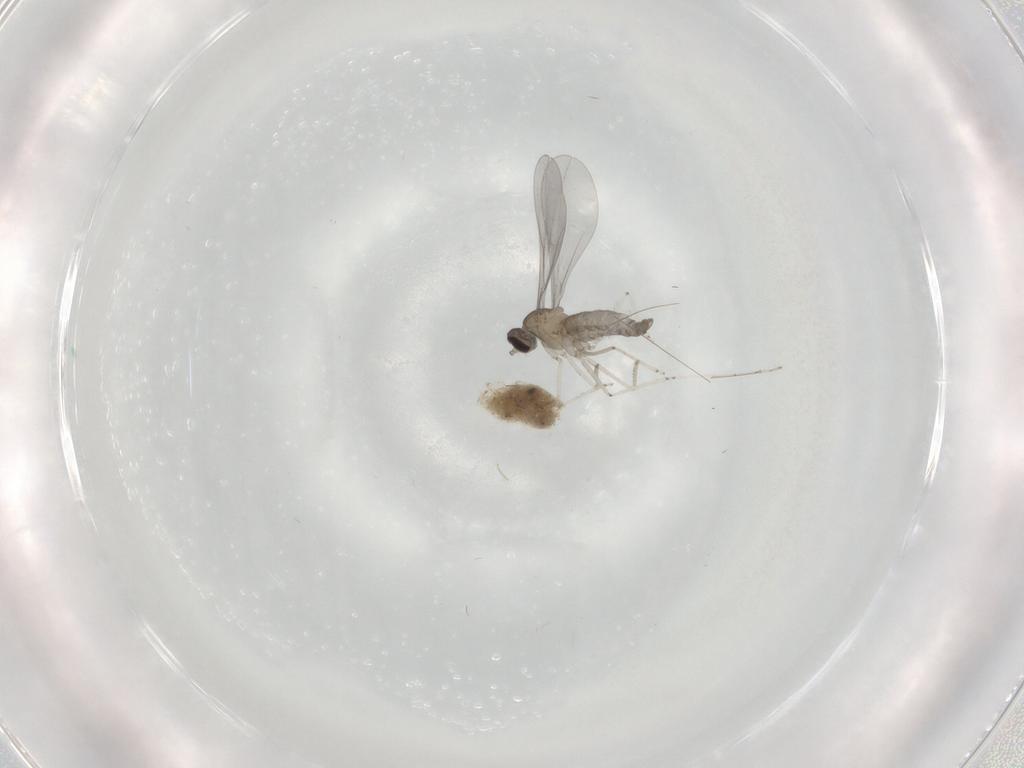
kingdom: Animalia
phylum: Arthropoda
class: Insecta
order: Diptera
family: Cecidomyiidae
